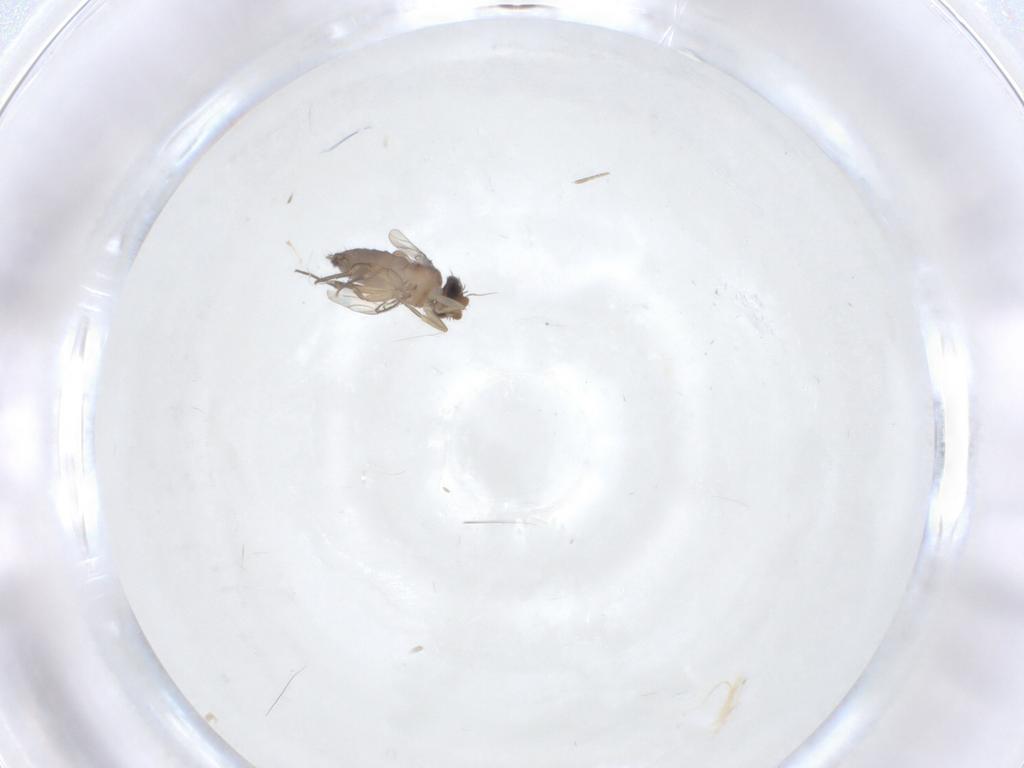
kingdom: Animalia
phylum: Arthropoda
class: Insecta
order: Diptera
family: Phoridae
